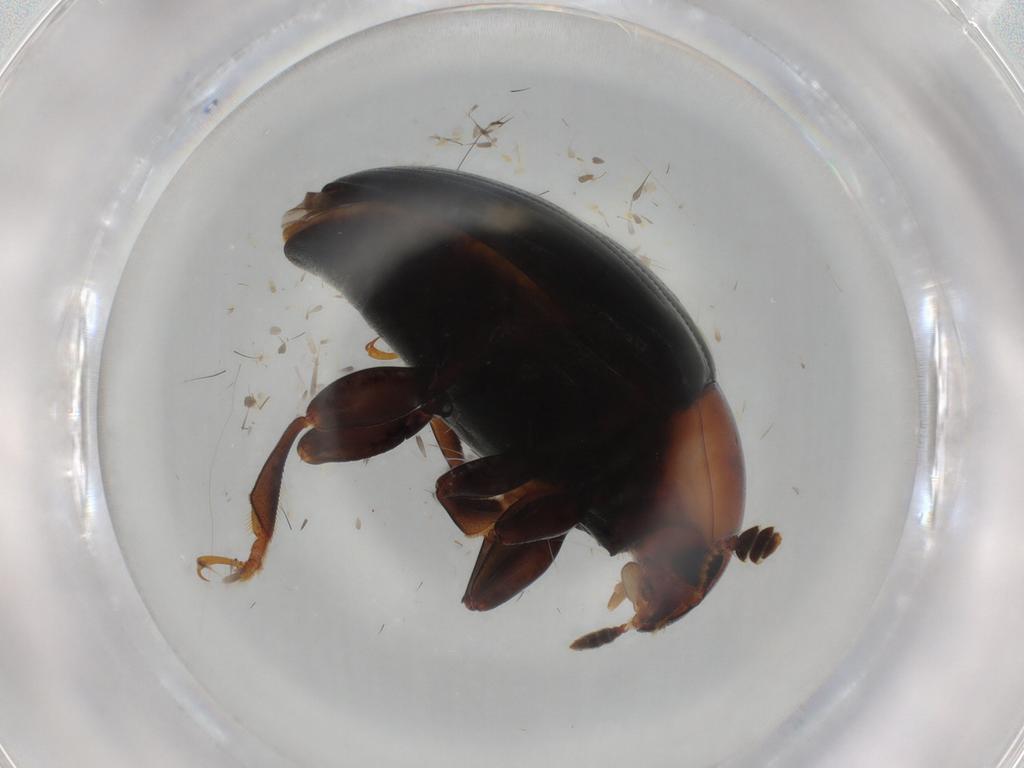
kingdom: Animalia
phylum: Arthropoda
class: Insecta
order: Coleoptera
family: Erotylidae
